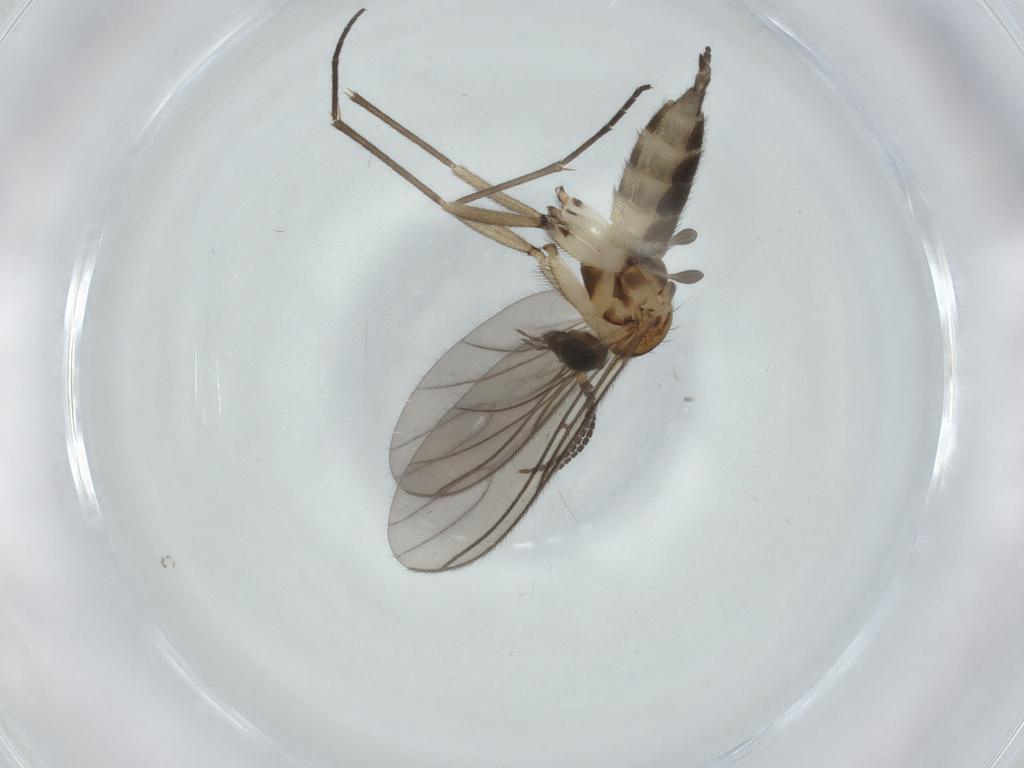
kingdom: Animalia
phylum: Arthropoda
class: Insecta
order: Diptera
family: Sciaridae
